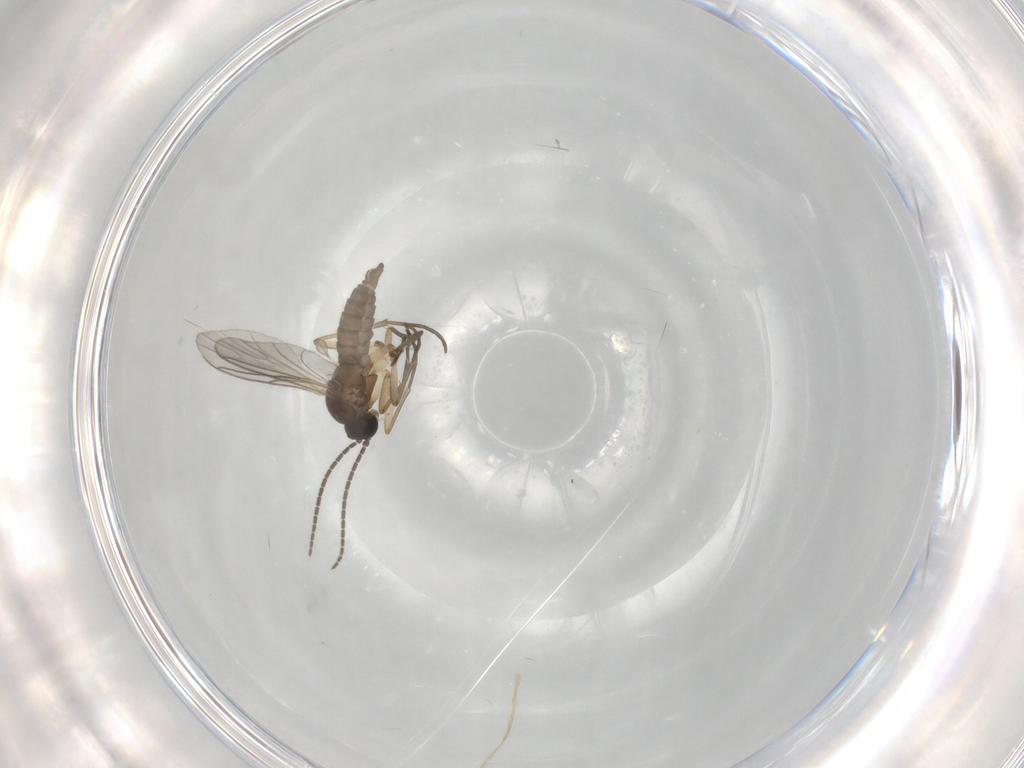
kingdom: Animalia
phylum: Arthropoda
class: Insecta
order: Diptera
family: Sciaridae
